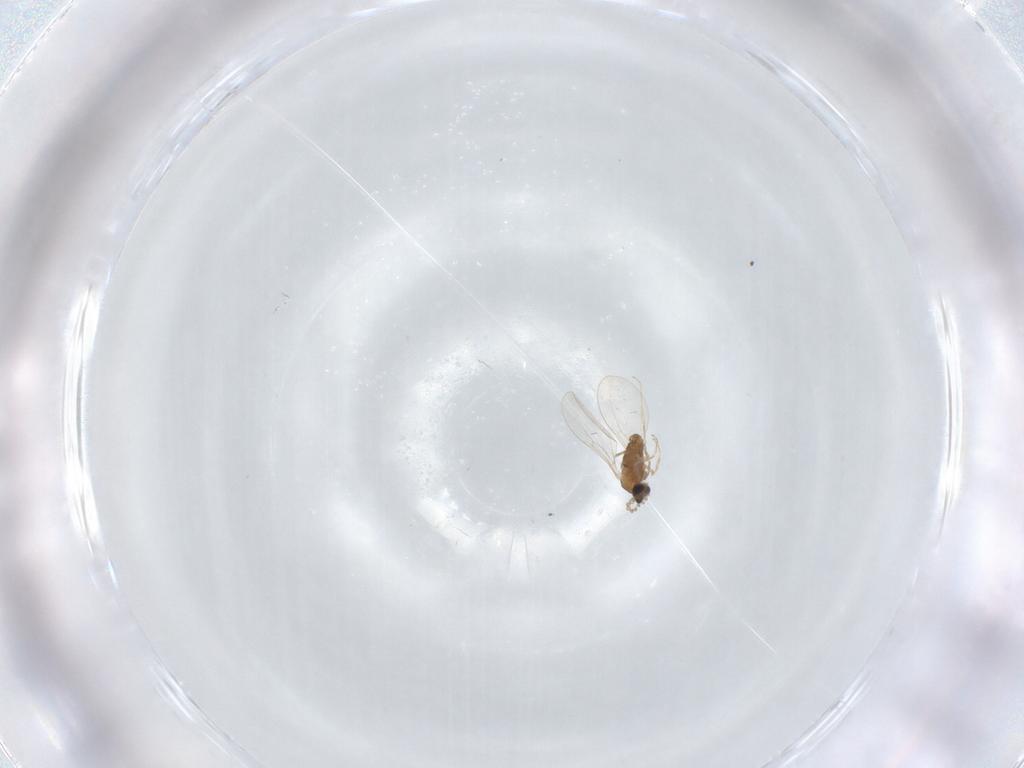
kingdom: Animalia
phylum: Arthropoda
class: Insecta
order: Diptera
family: Cecidomyiidae
